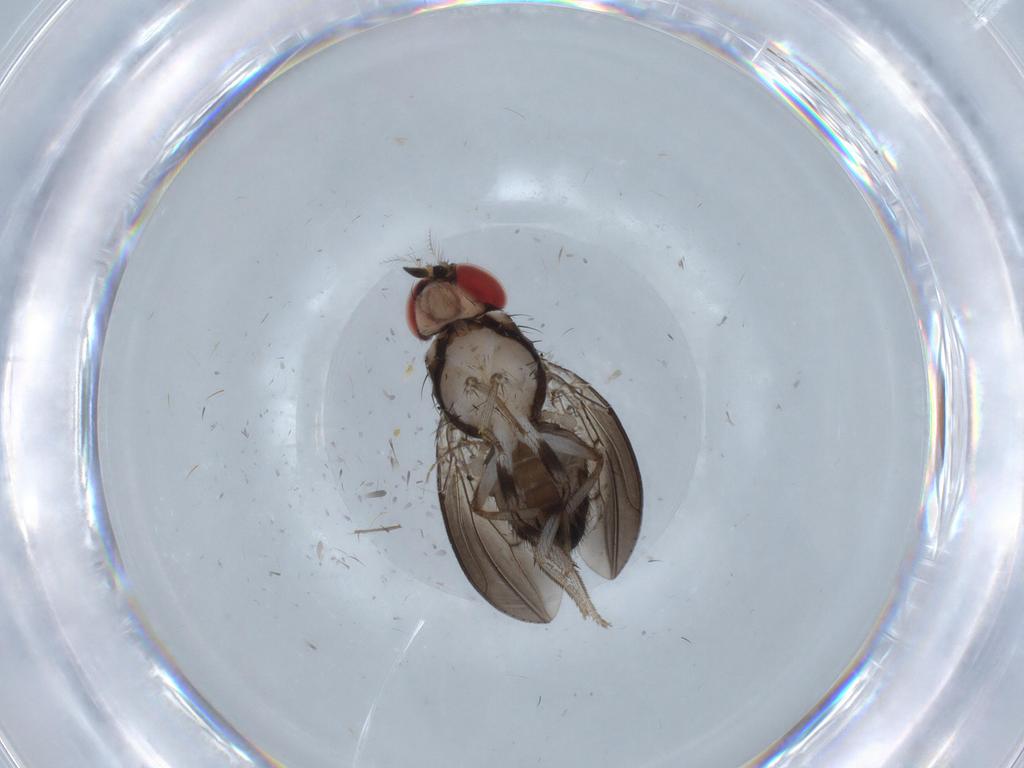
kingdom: Animalia
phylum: Arthropoda
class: Insecta
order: Diptera
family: Drosophilidae
